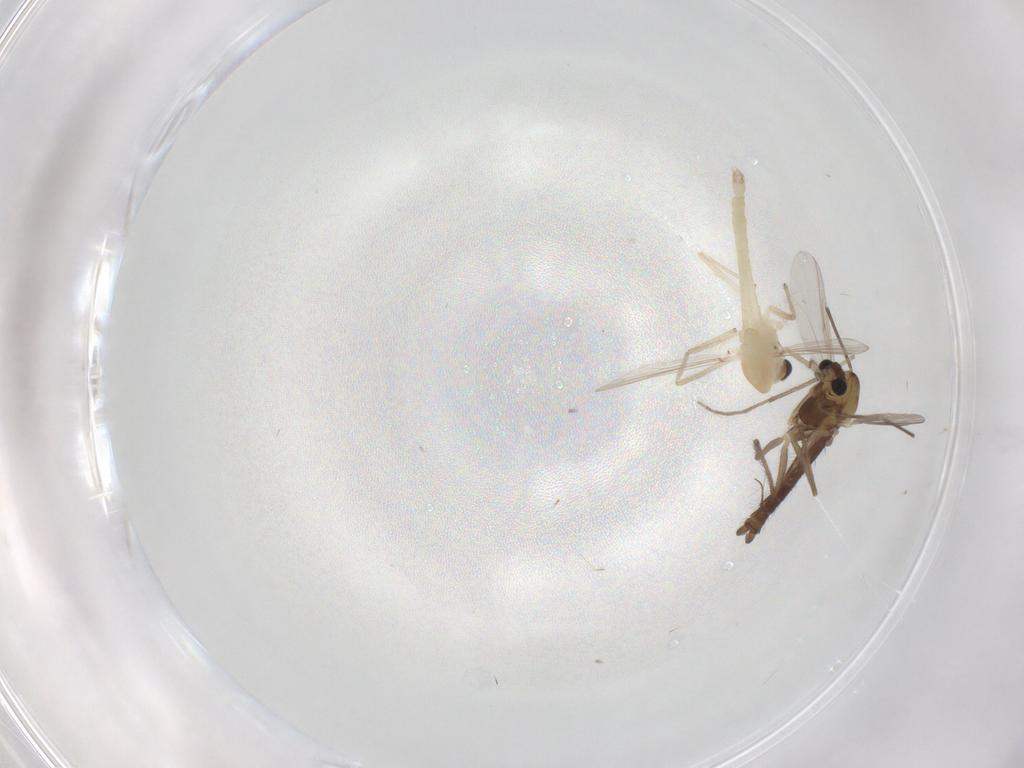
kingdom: Animalia
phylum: Arthropoda
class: Insecta
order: Diptera
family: Chironomidae
